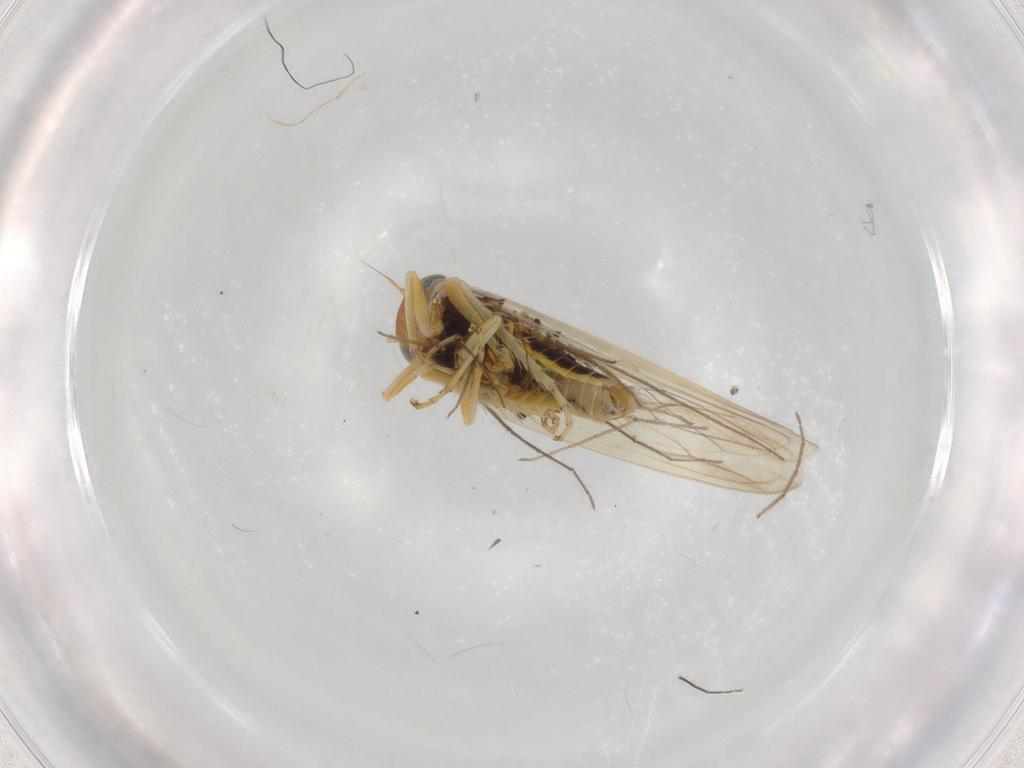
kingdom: Animalia
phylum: Arthropoda
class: Insecta
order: Hemiptera
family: Cicadellidae
